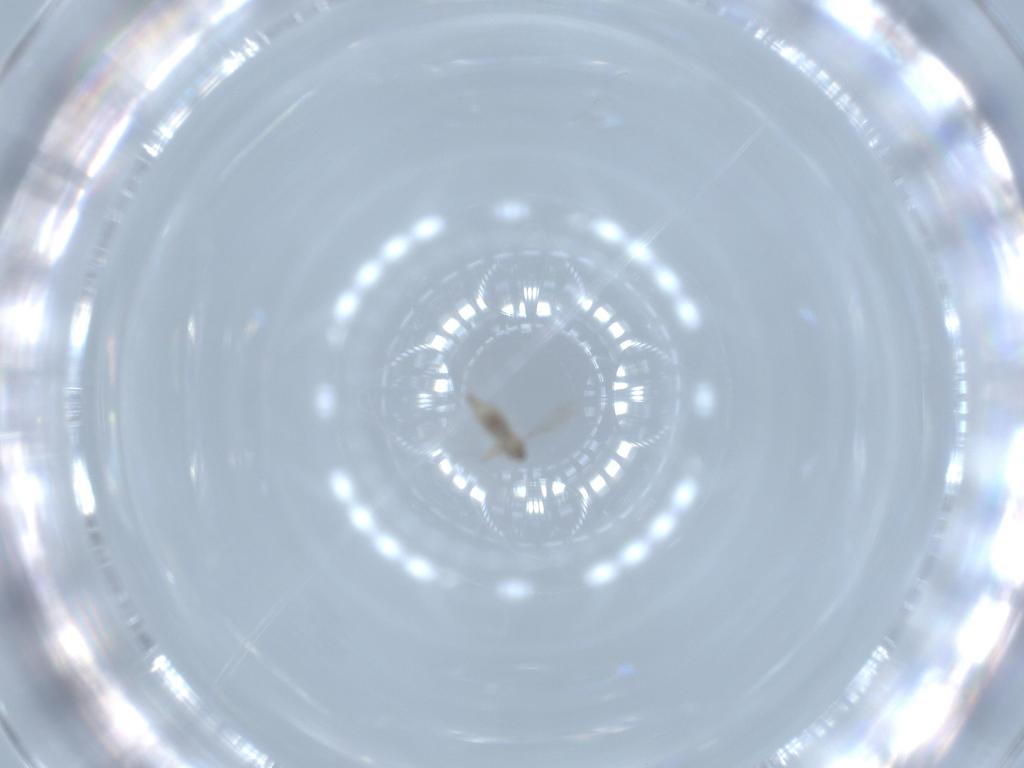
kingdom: Animalia
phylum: Arthropoda
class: Insecta
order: Diptera
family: Cecidomyiidae
